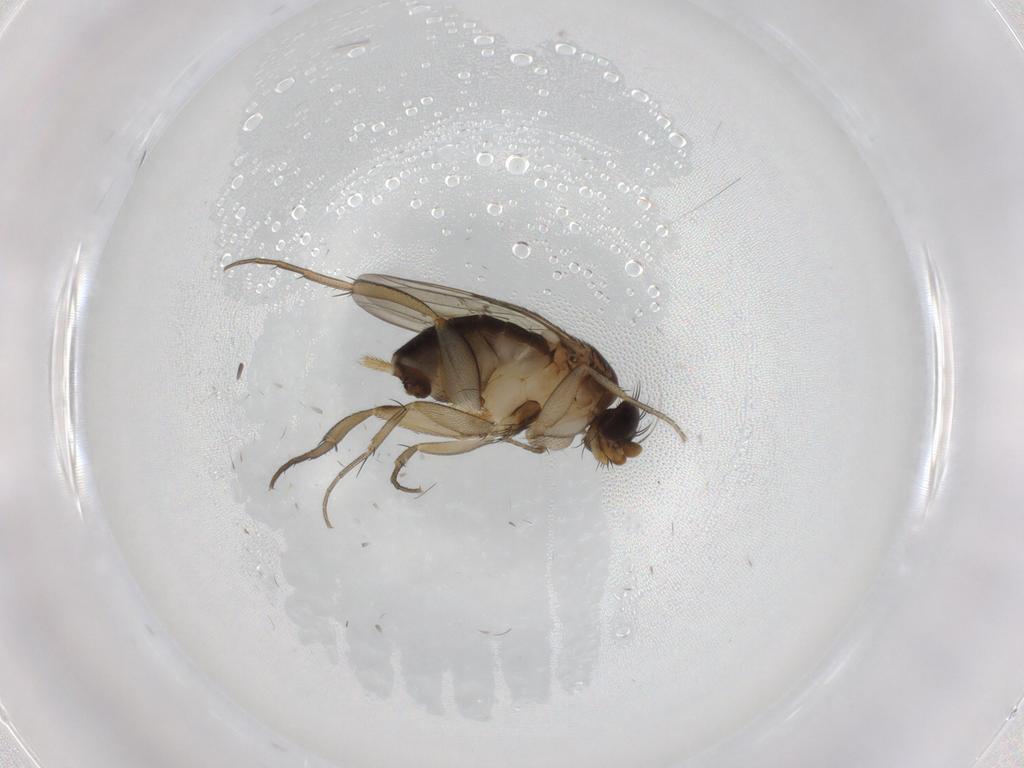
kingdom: Animalia
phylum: Arthropoda
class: Insecta
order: Diptera
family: Phoridae
